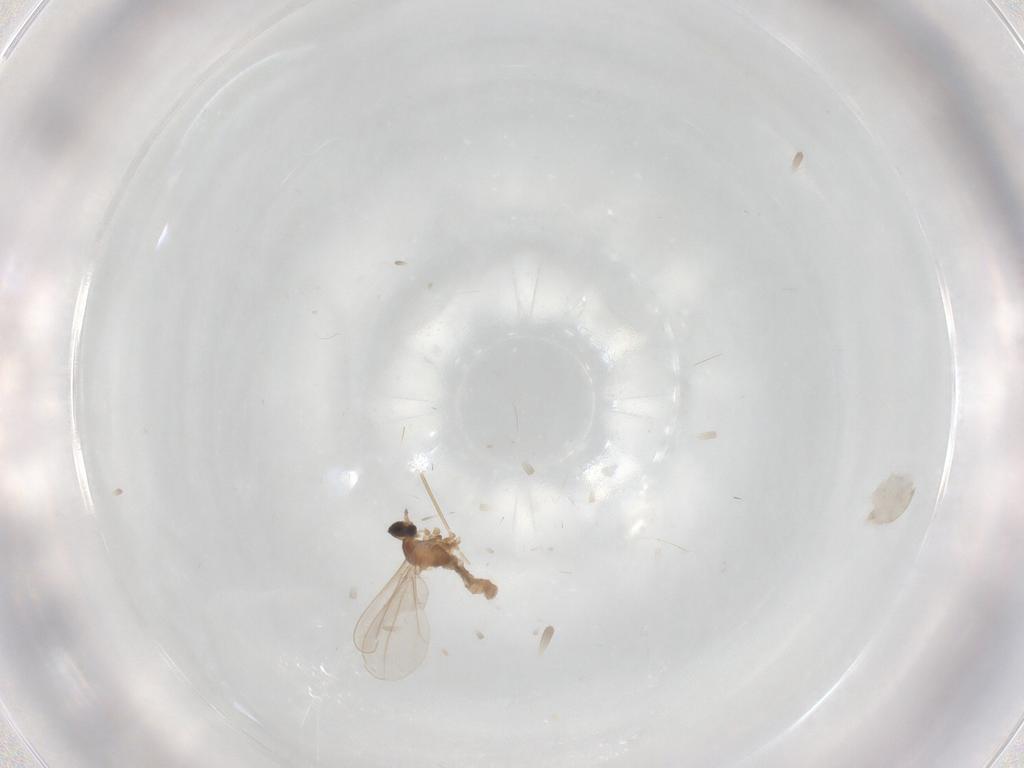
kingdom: Animalia
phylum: Arthropoda
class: Insecta
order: Diptera
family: Cecidomyiidae
